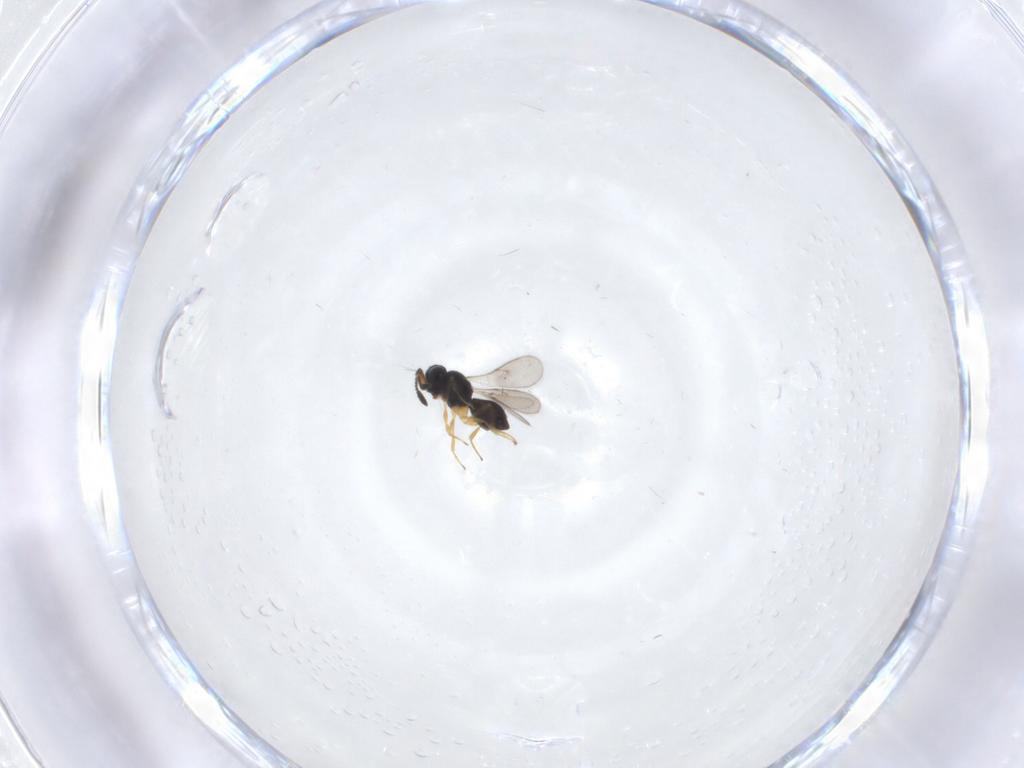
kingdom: Animalia
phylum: Arthropoda
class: Insecta
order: Hymenoptera
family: Scelionidae
